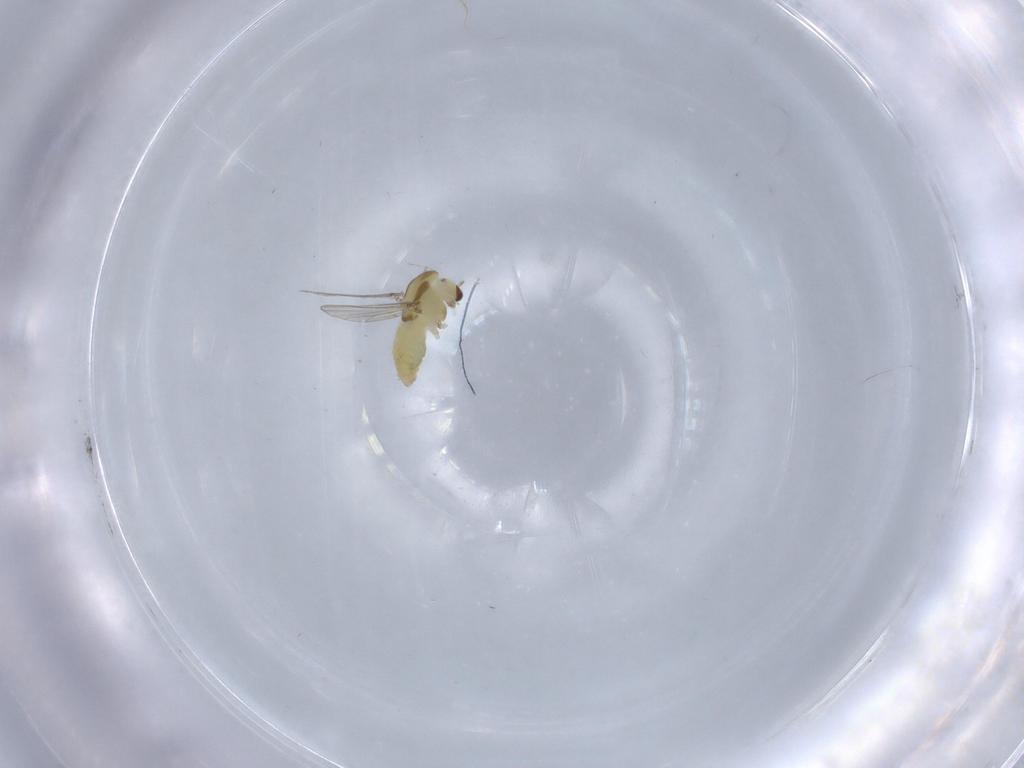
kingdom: Animalia
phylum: Arthropoda
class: Insecta
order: Diptera
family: Chironomidae
